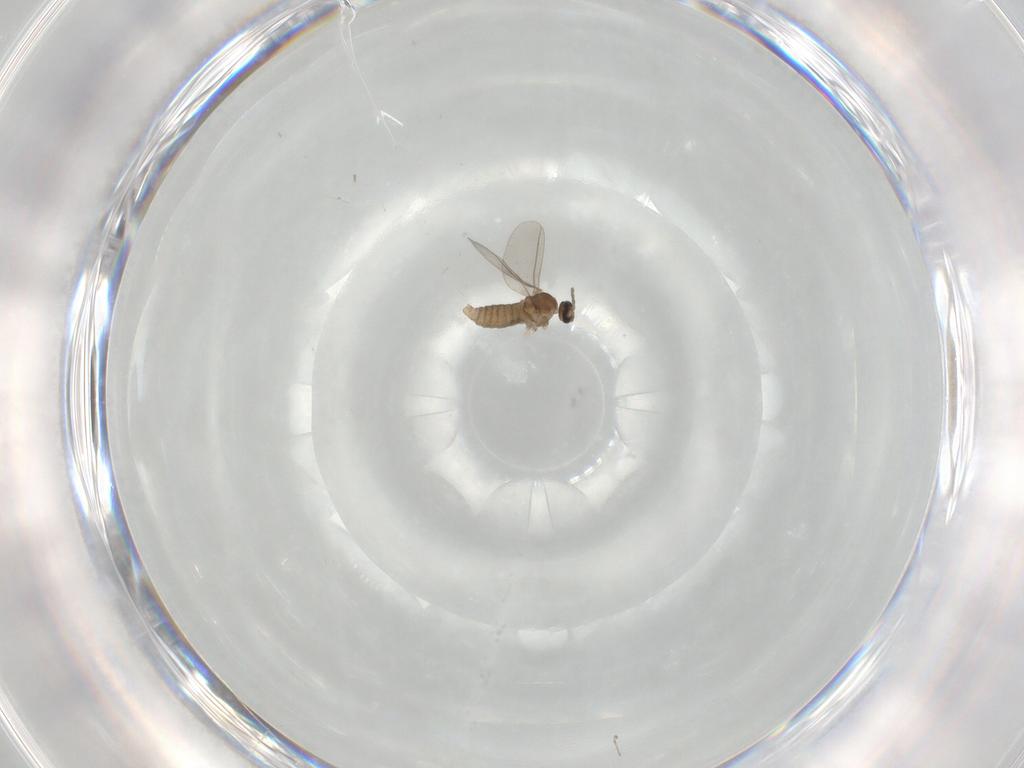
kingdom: Animalia
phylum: Arthropoda
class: Insecta
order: Diptera
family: Cecidomyiidae
